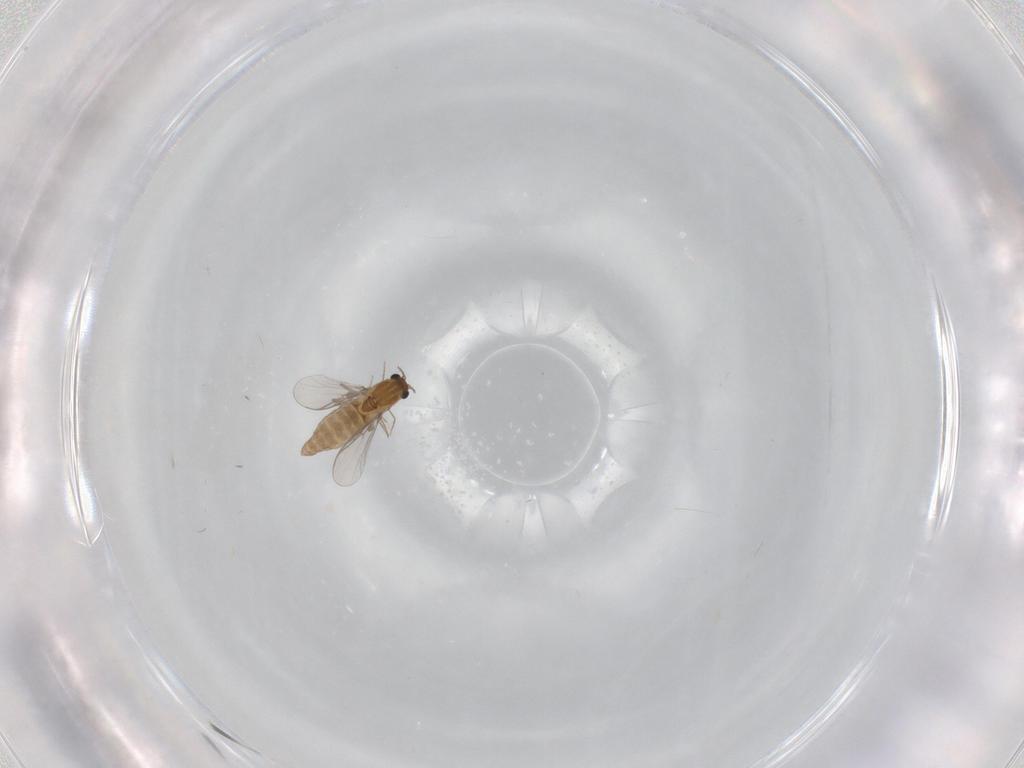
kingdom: Animalia
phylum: Arthropoda
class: Insecta
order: Diptera
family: Chironomidae
